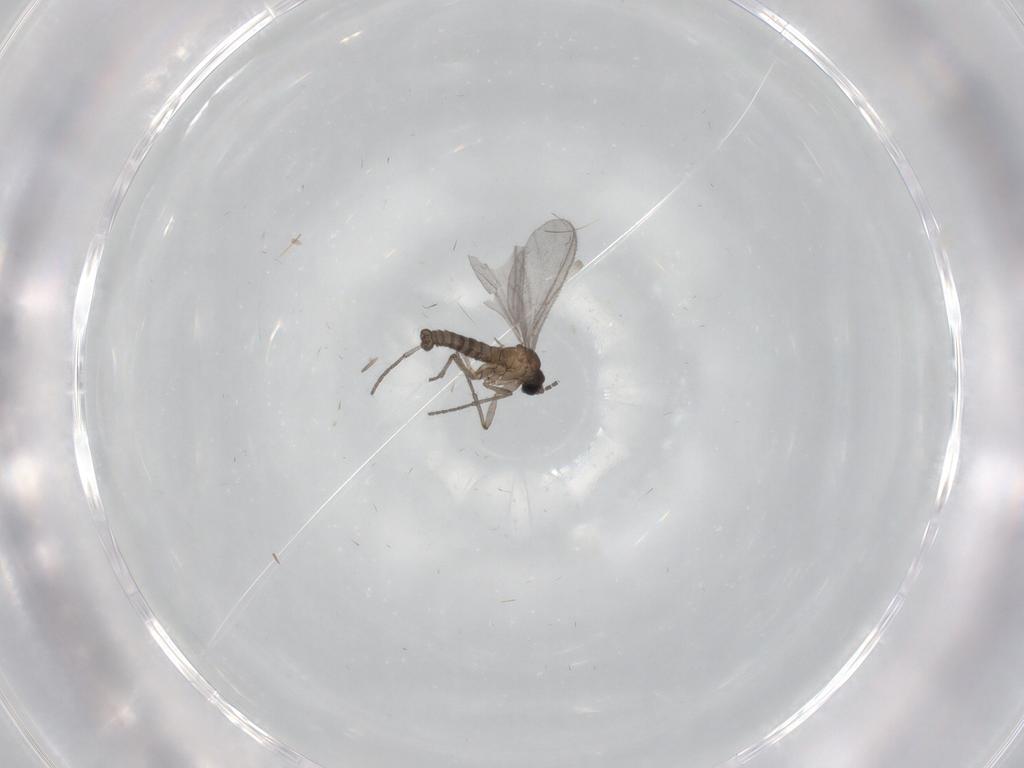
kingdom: Animalia
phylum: Arthropoda
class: Insecta
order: Diptera
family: Sciaridae
